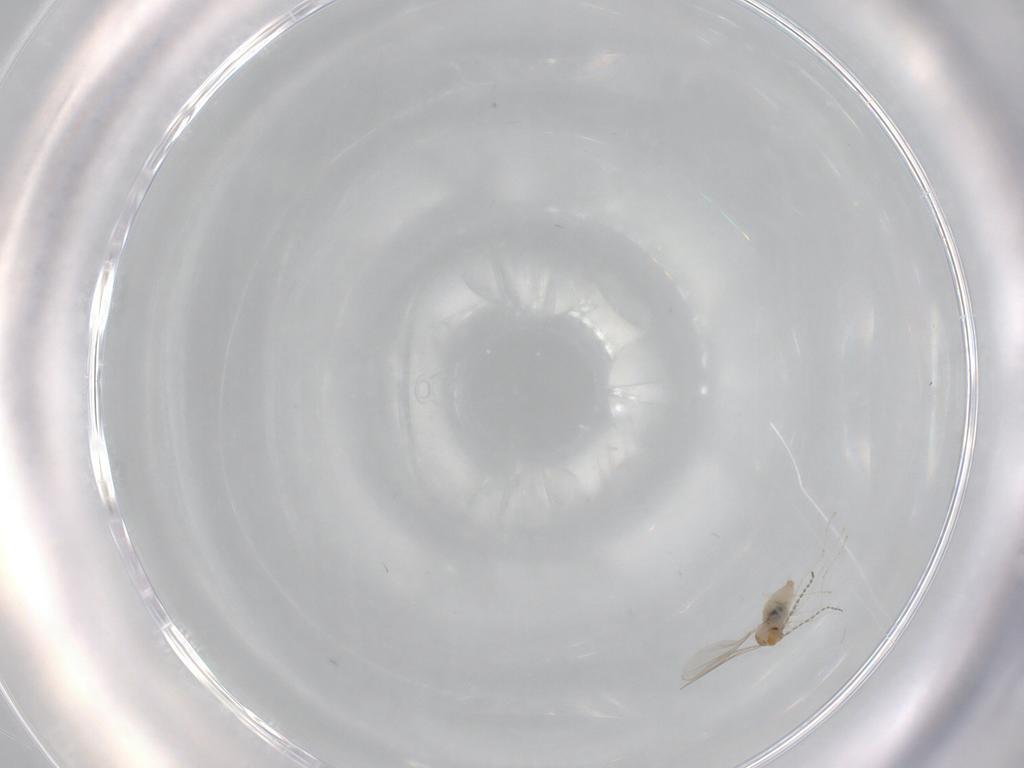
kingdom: Animalia
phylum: Arthropoda
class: Insecta
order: Diptera
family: Cecidomyiidae
